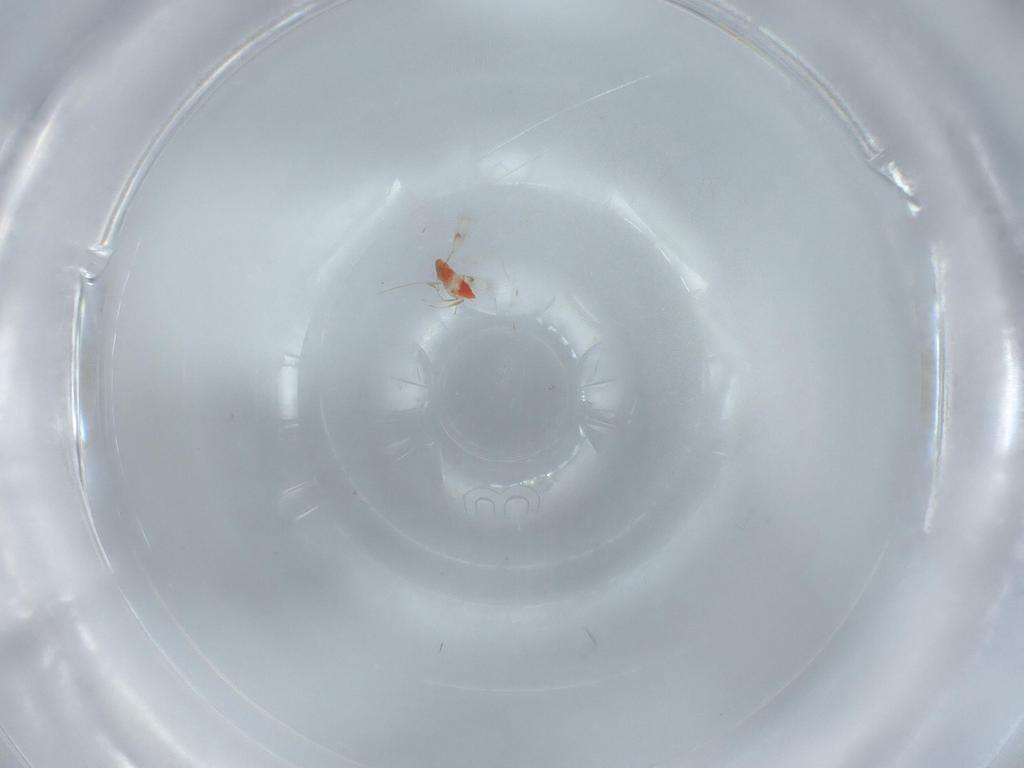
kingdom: Animalia
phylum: Arthropoda
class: Insecta
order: Hymenoptera
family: Trichogrammatidae
